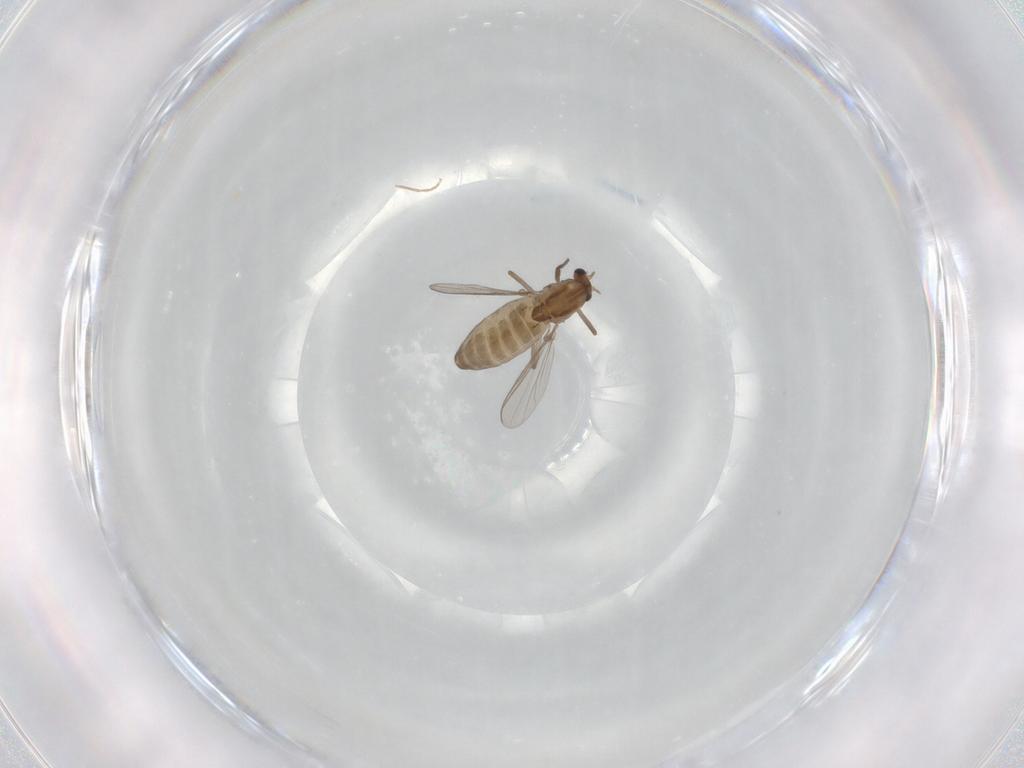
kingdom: Animalia
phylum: Arthropoda
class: Insecta
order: Diptera
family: Chironomidae
